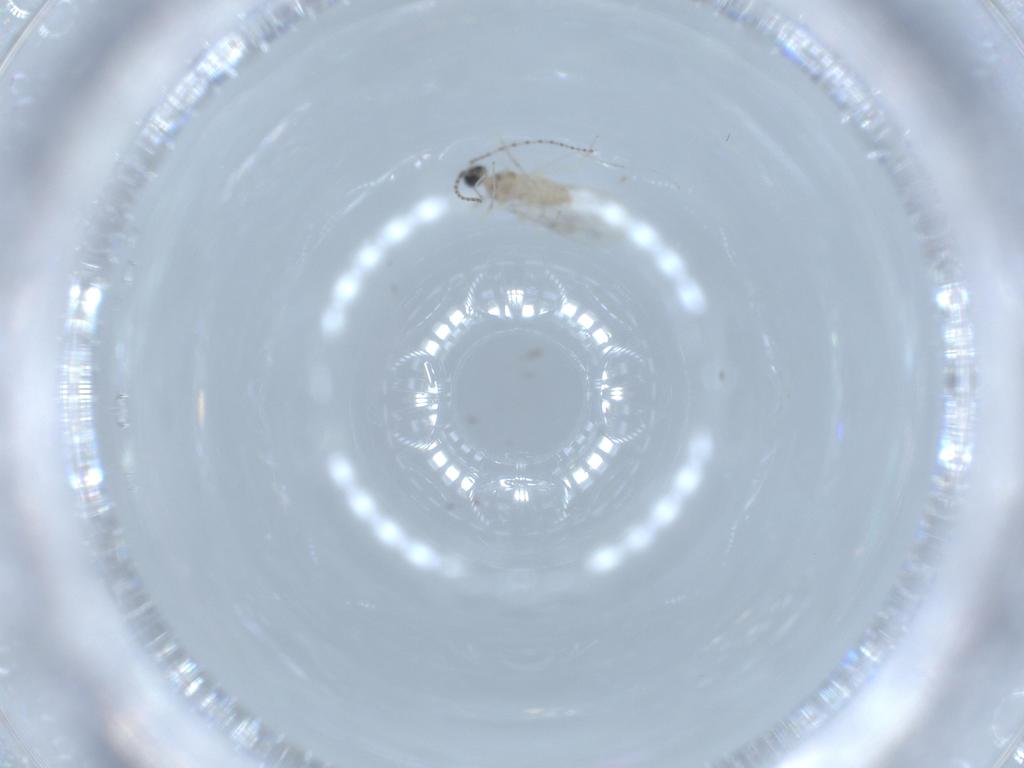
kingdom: Animalia
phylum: Arthropoda
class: Insecta
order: Diptera
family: Cecidomyiidae
